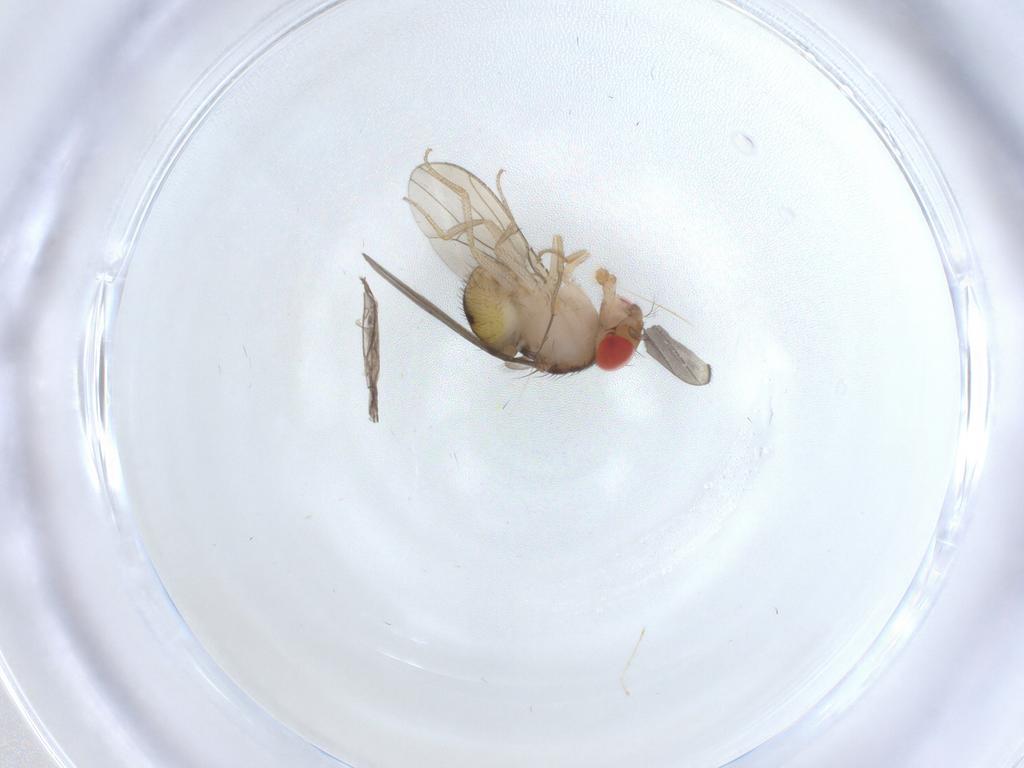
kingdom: Animalia
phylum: Arthropoda
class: Insecta
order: Diptera
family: Drosophilidae
